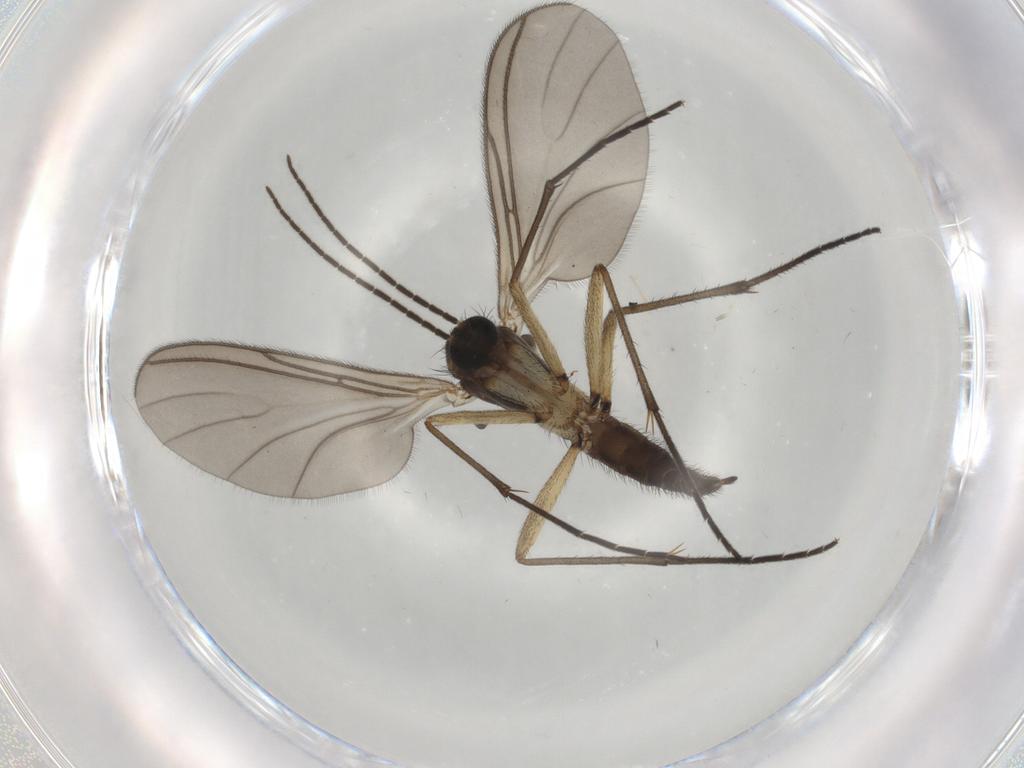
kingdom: Animalia
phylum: Arthropoda
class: Insecta
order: Diptera
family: Sciaridae
